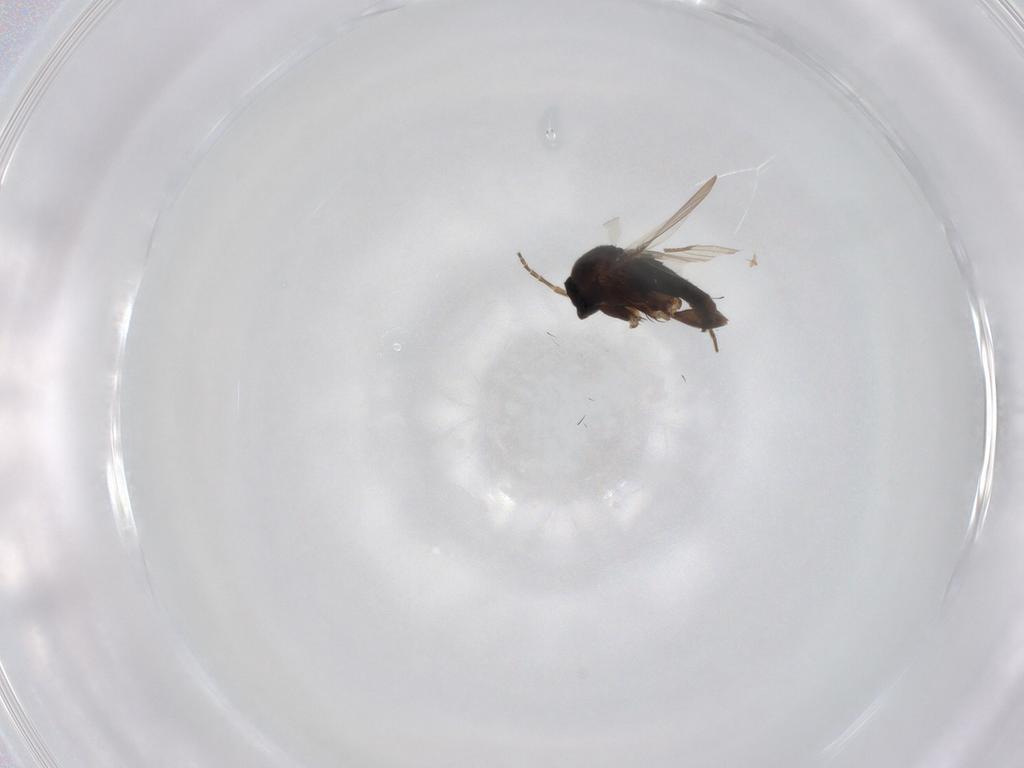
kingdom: Animalia
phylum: Arthropoda
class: Insecta
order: Diptera
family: Phoridae
